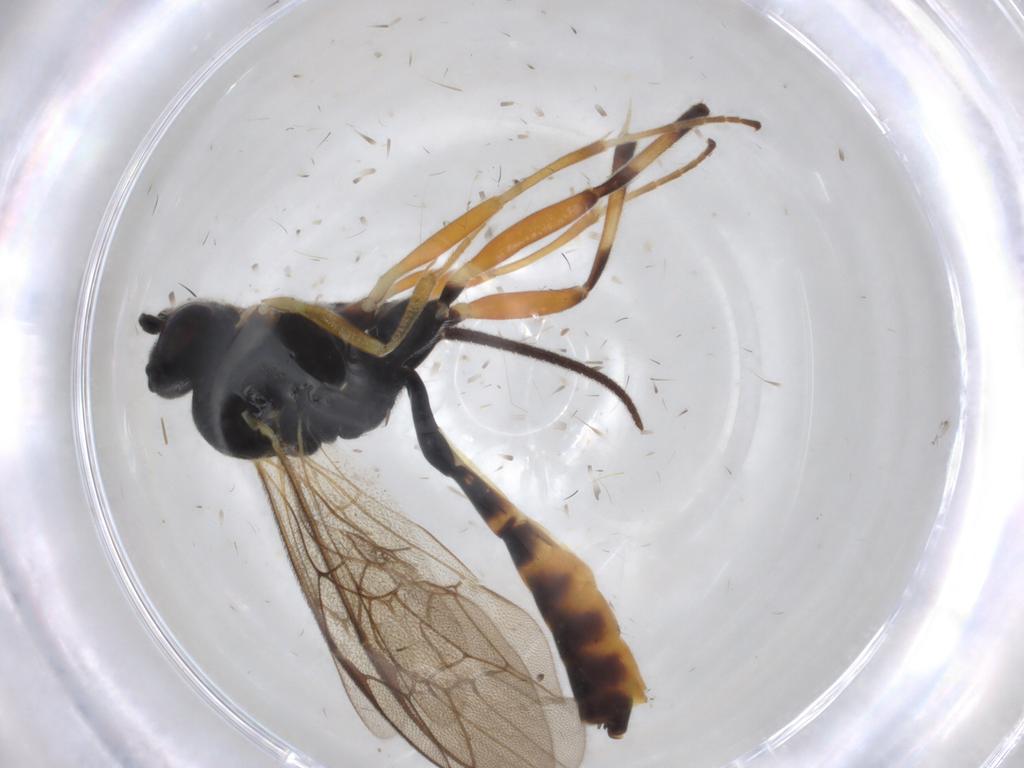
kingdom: Animalia
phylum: Arthropoda
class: Insecta
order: Hymenoptera
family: Ichneumonidae
